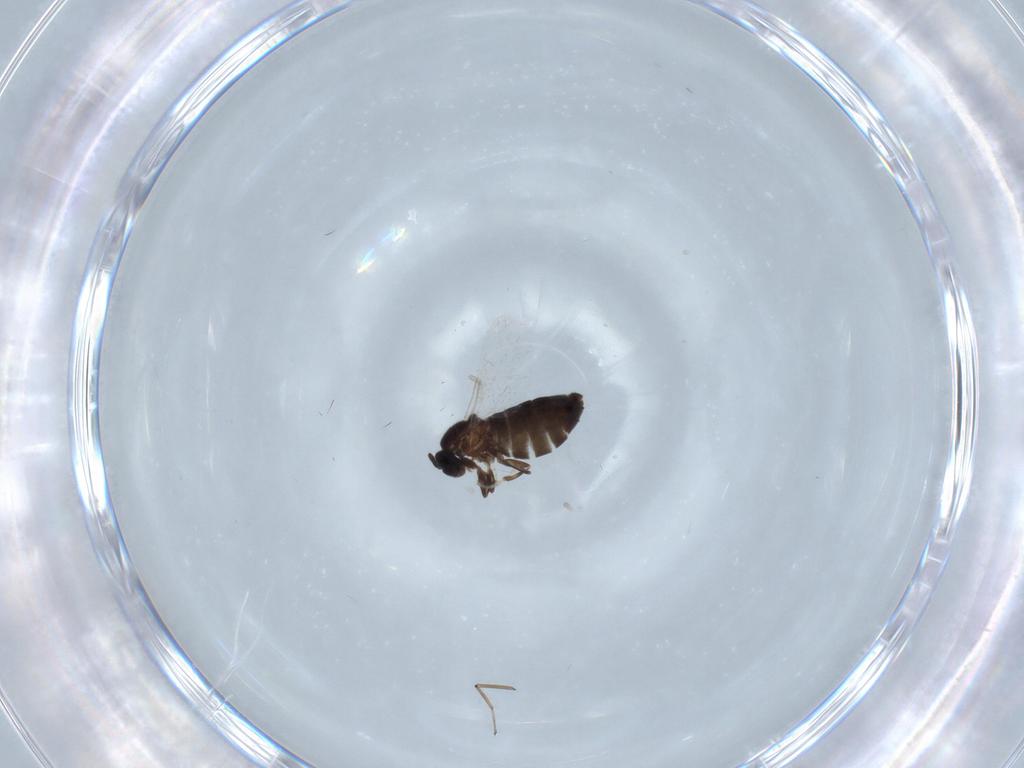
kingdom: Animalia
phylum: Arthropoda
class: Insecta
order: Diptera
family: Scatopsidae
